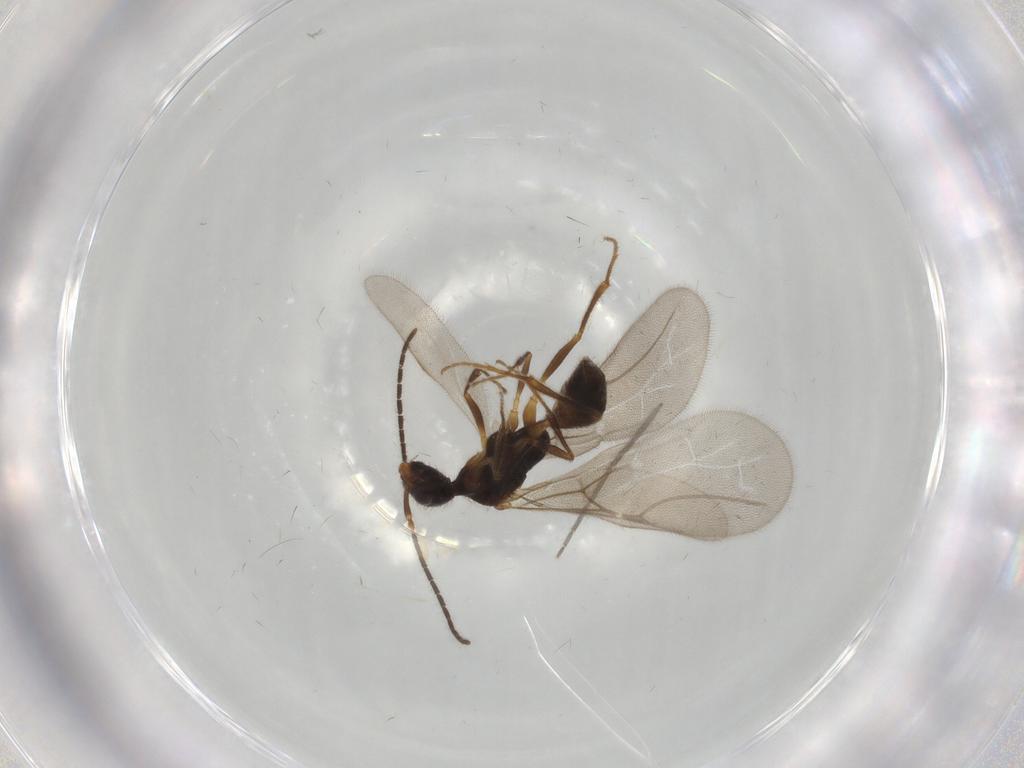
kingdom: Animalia
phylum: Arthropoda
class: Insecta
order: Hymenoptera
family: Bethylidae
